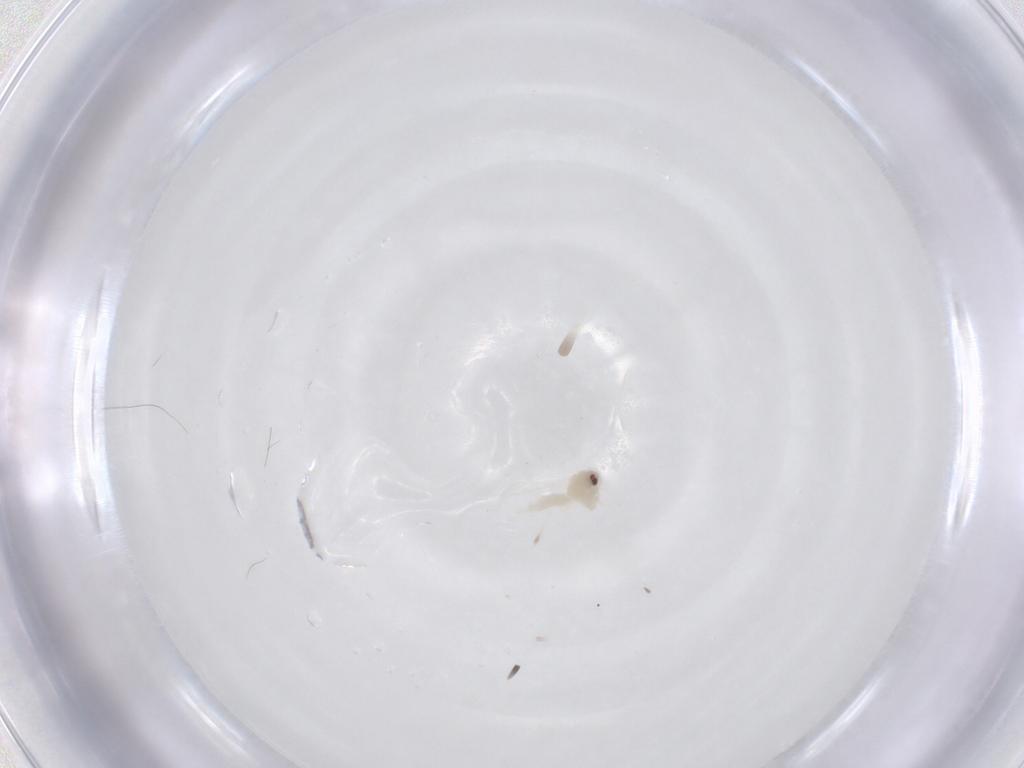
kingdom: Animalia
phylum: Arthropoda
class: Insecta
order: Hemiptera
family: Aleyrodidae
